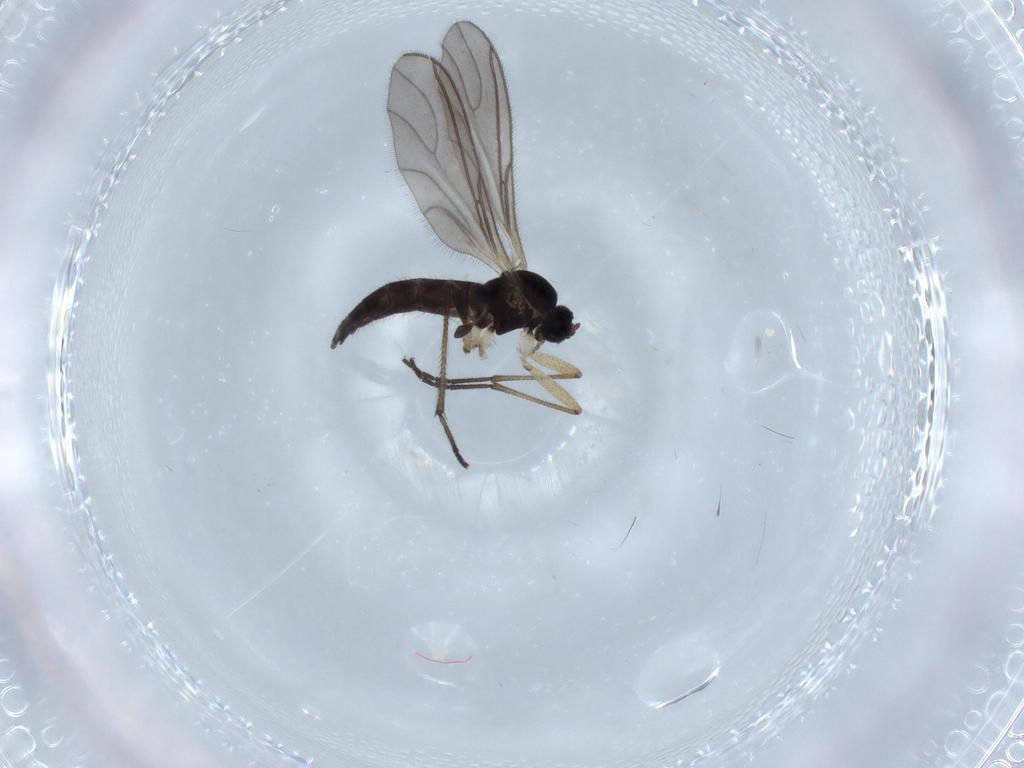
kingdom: Animalia
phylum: Arthropoda
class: Insecta
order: Diptera
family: Sciaridae
